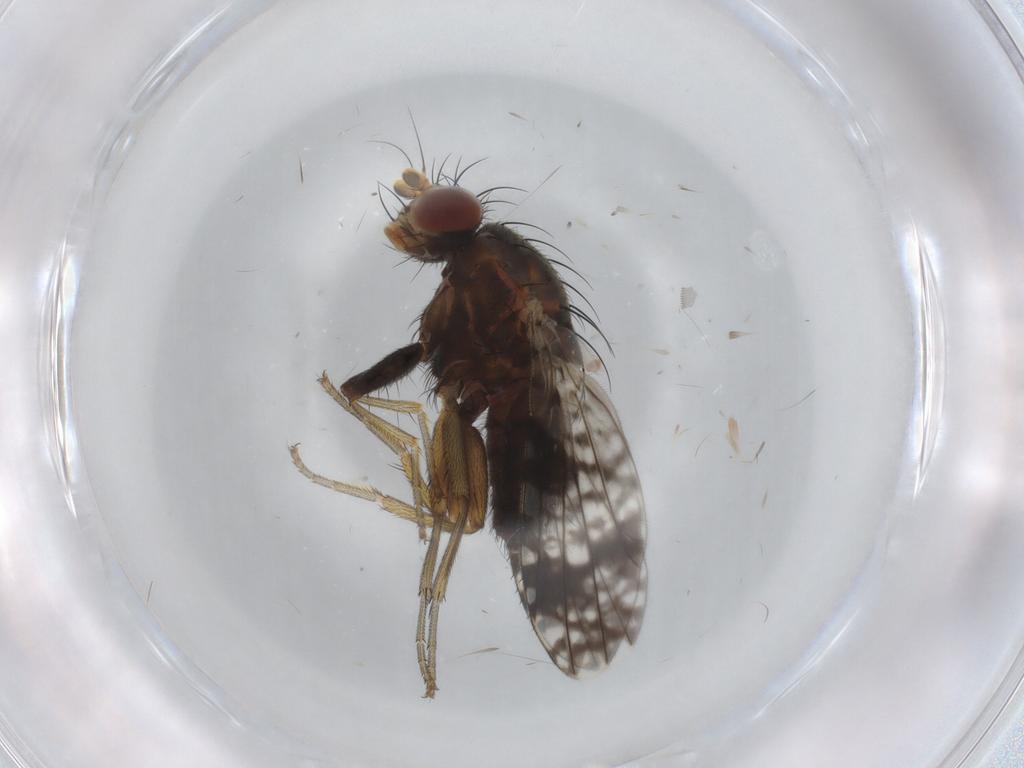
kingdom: Animalia
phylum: Arthropoda
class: Insecta
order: Diptera
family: Tephritidae
